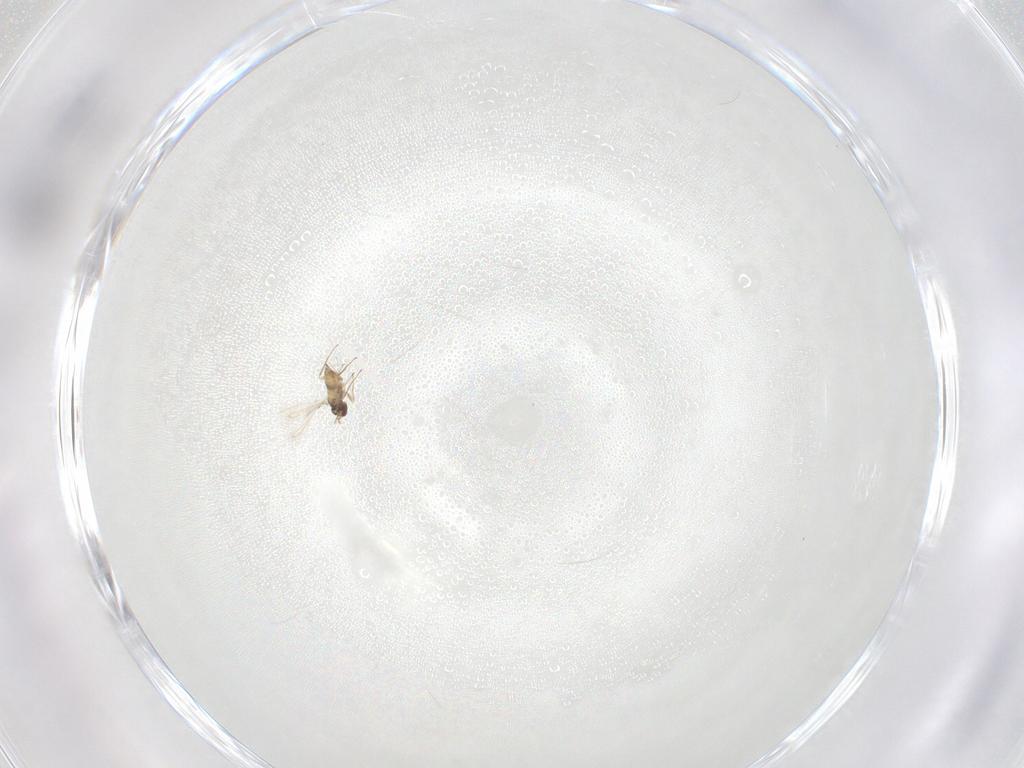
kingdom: Animalia
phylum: Arthropoda
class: Insecta
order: Hymenoptera
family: Mymaridae
